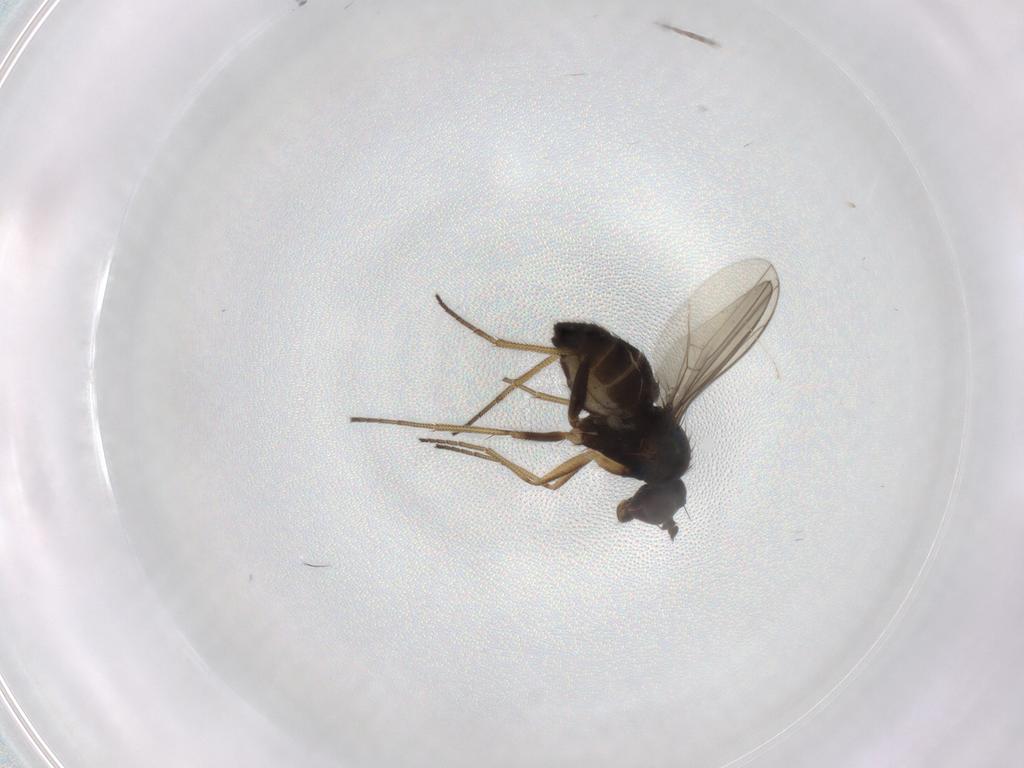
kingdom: Animalia
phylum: Arthropoda
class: Insecta
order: Diptera
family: Dolichopodidae
